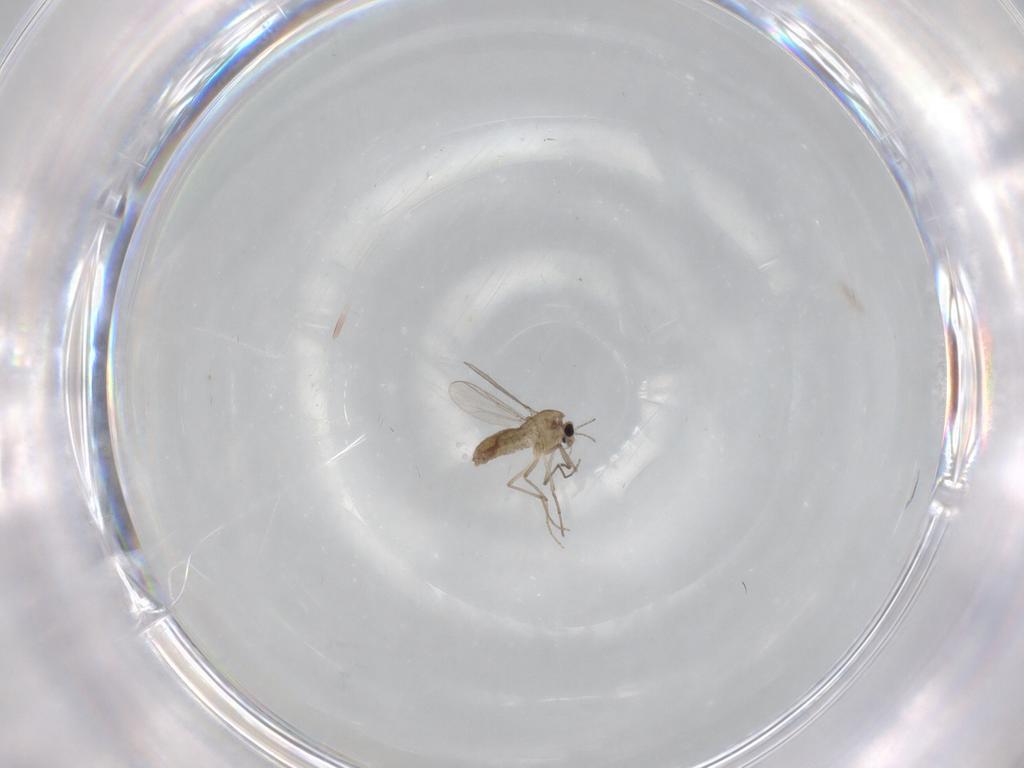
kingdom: Animalia
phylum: Arthropoda
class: Insecta
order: Diptera
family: Chironomidae
